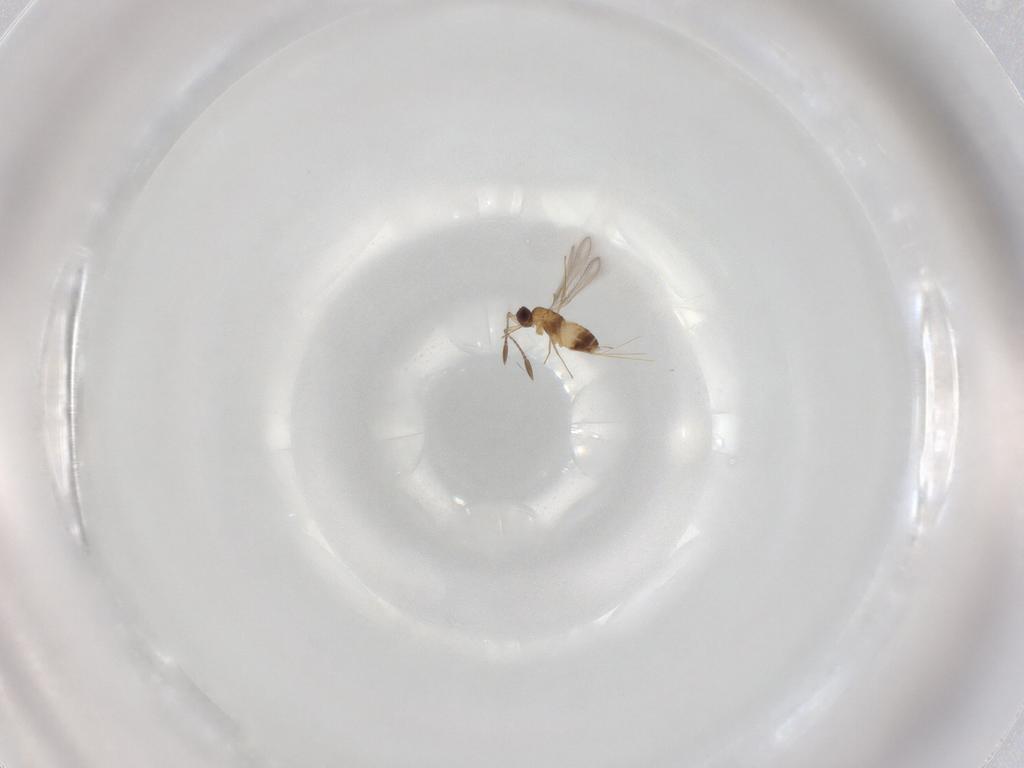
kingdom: Animalia
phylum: Arthropoda
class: Insecta
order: Hymenoptera
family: Mymaridae
